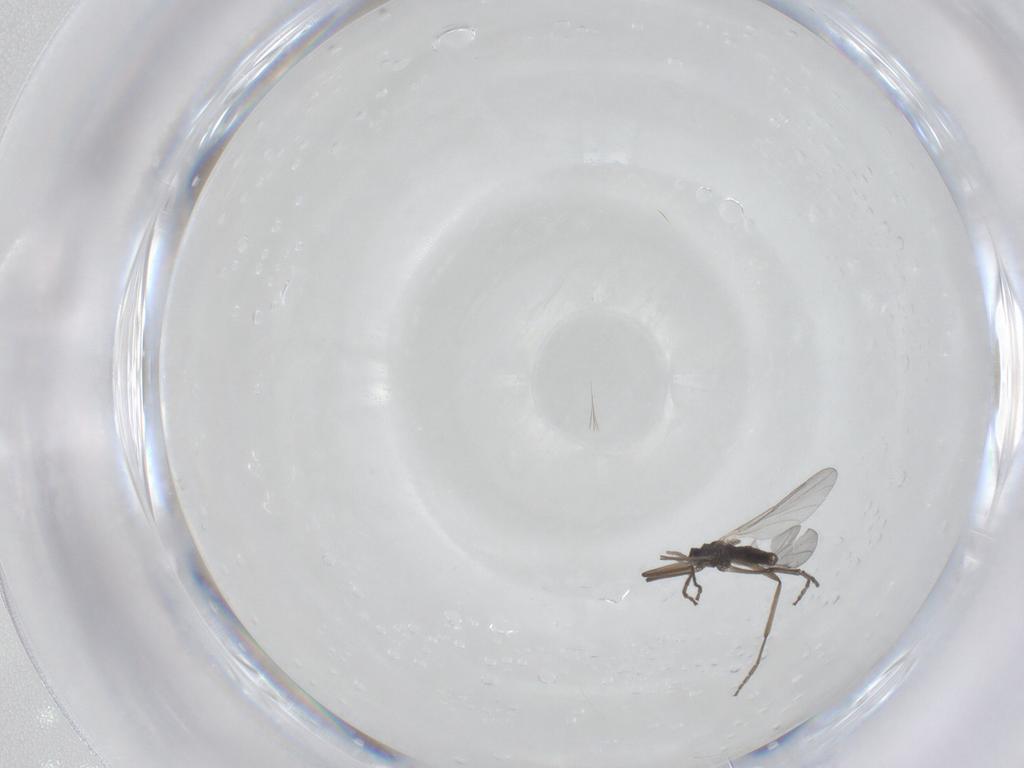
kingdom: Animalia
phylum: Arthropoda
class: Insecta
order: Diptera
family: Cecidomyiidae
